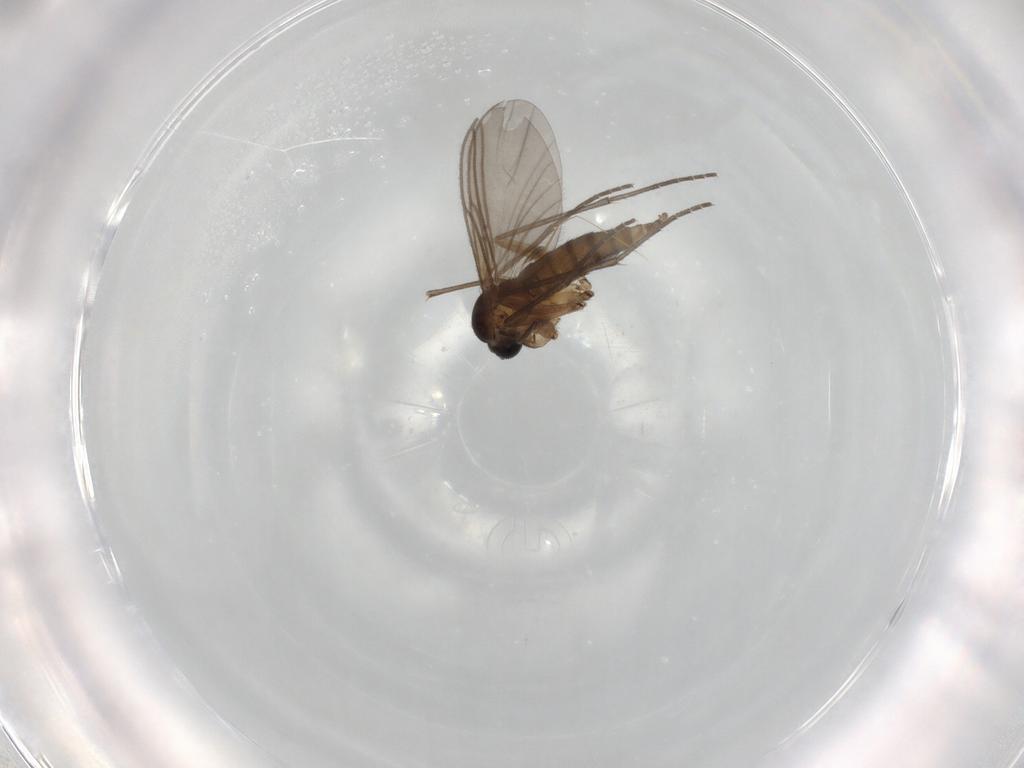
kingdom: Animalia
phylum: Arthropoda
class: Insecta
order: Diptera
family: Sciaridae
